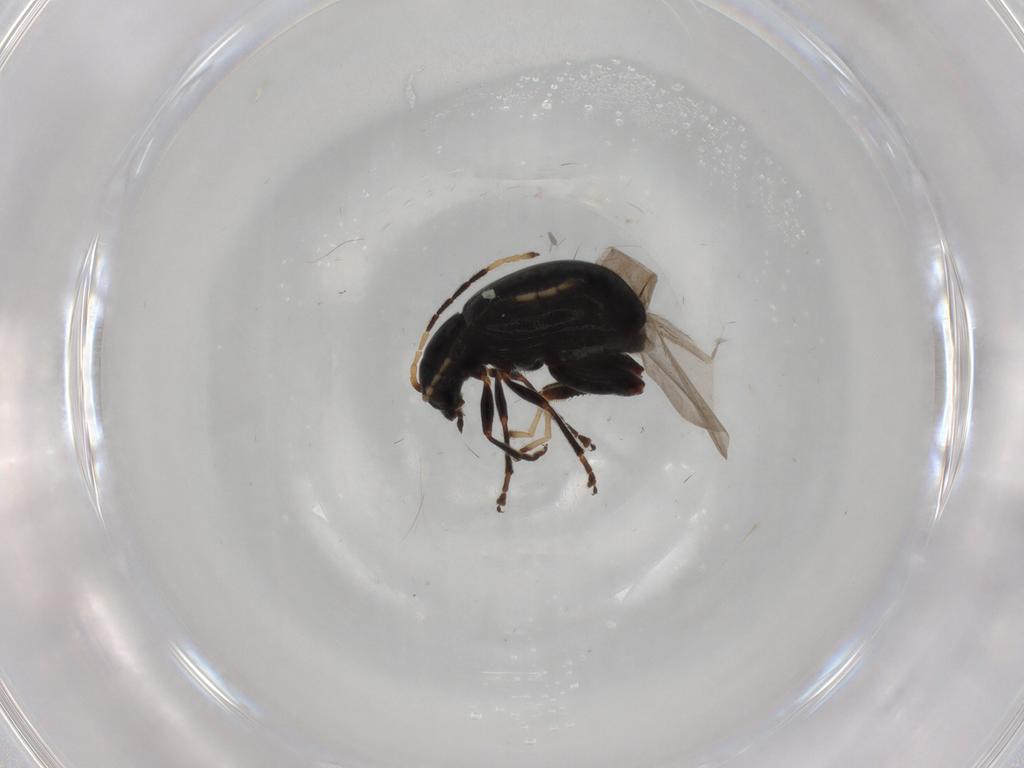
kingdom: Animalia
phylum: Arthropoda
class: Insecta
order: Coleoptera
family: Chrysomelidae
